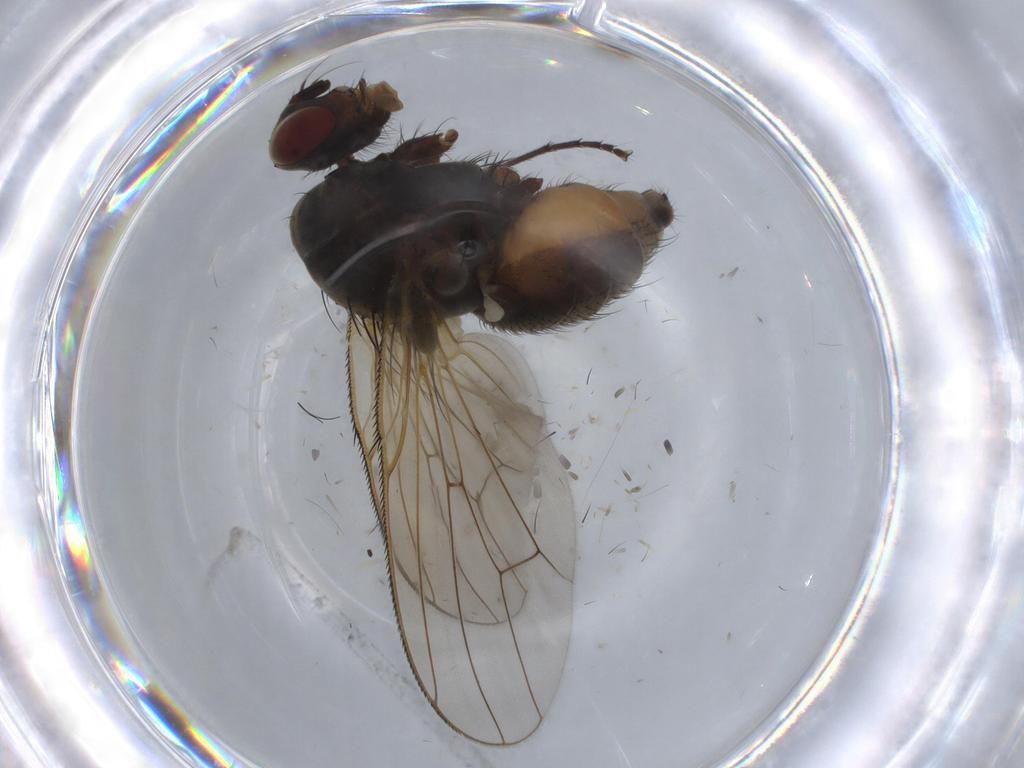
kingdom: Animalia
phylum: Arthropoda
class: Insecta
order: Diptera
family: Anthomyiidae
